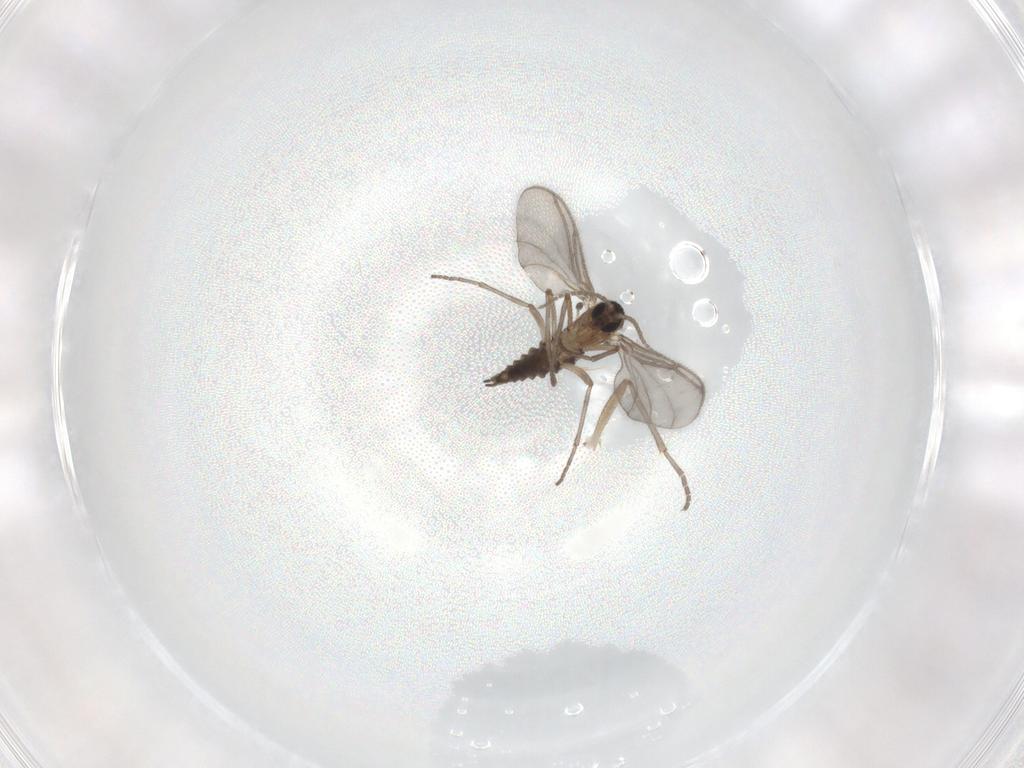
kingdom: Animalia
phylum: Arthropoda
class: Insecta
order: Diptera
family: Sciaridae
